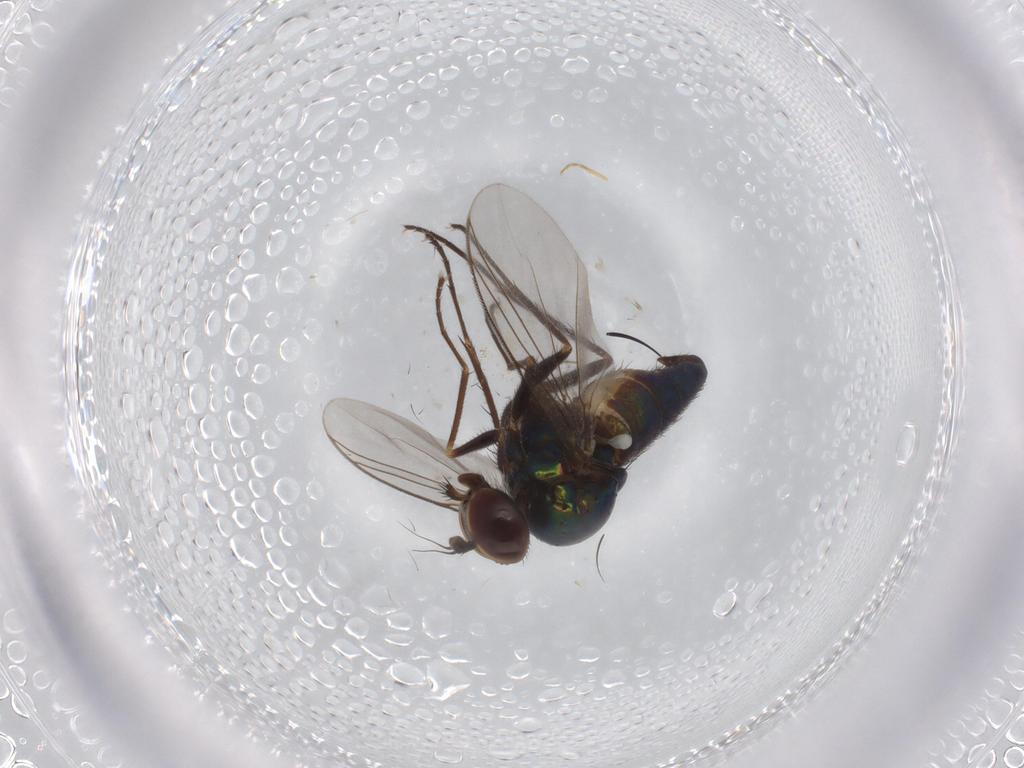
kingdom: Animalia
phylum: Arthropoda
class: Insecta
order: Diptera
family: Dolichopodidae
